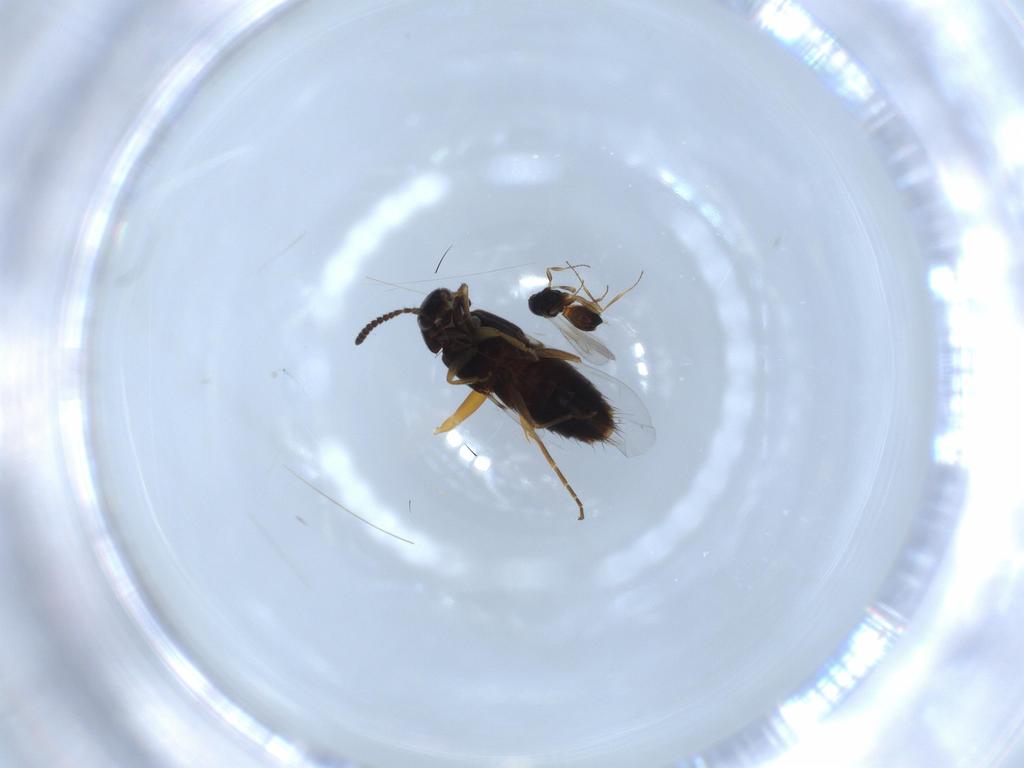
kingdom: Animalia
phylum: Arthropoda
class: Insecta
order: Coleoptera
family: Staphylinidae
